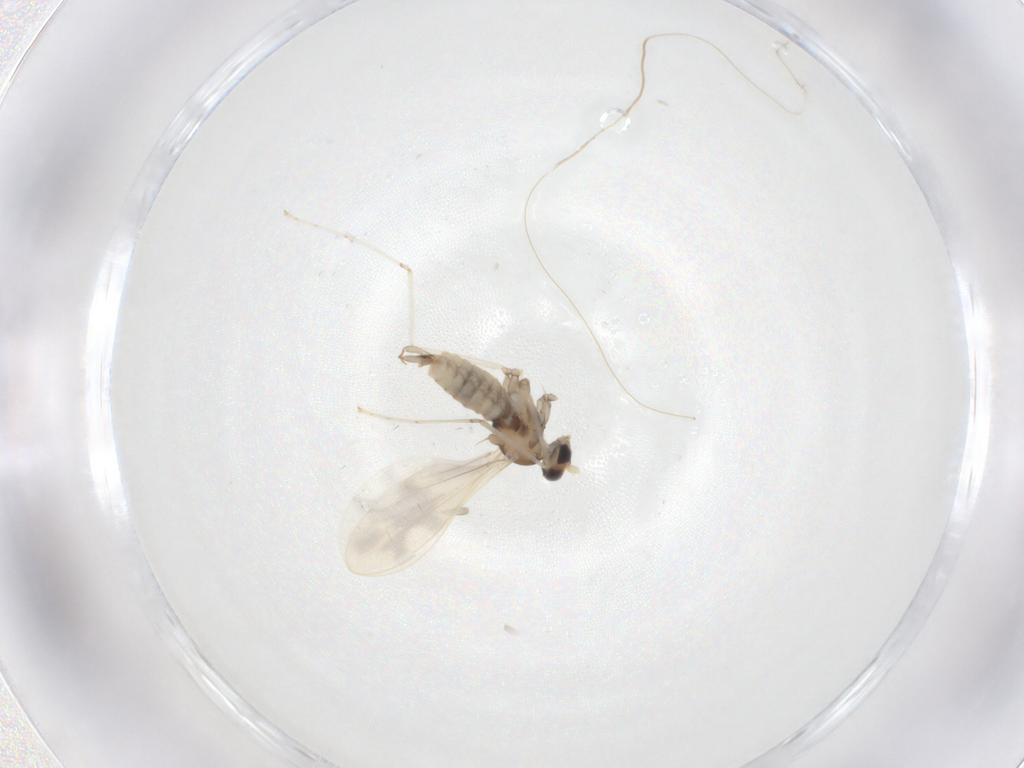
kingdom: Animalia
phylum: Arthropoda
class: Insecta
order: Diptera
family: Cecidomyiidae
